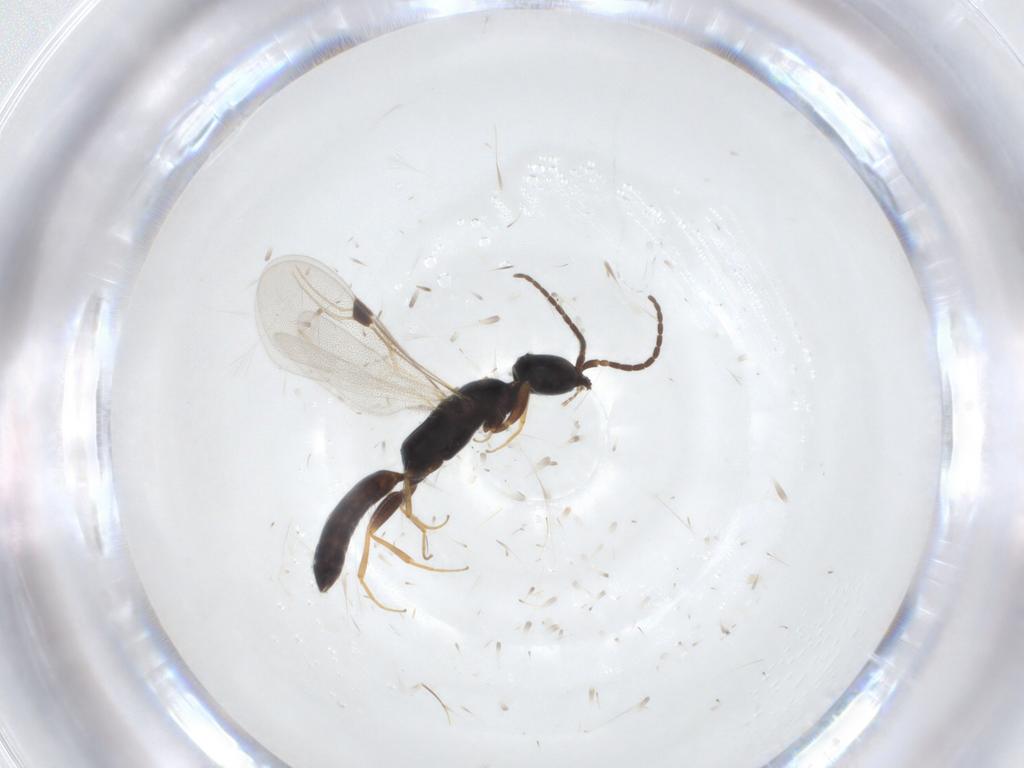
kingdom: Animalia
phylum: Arthropoda
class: Insecta
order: Hymenoptera
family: Bethylidae
